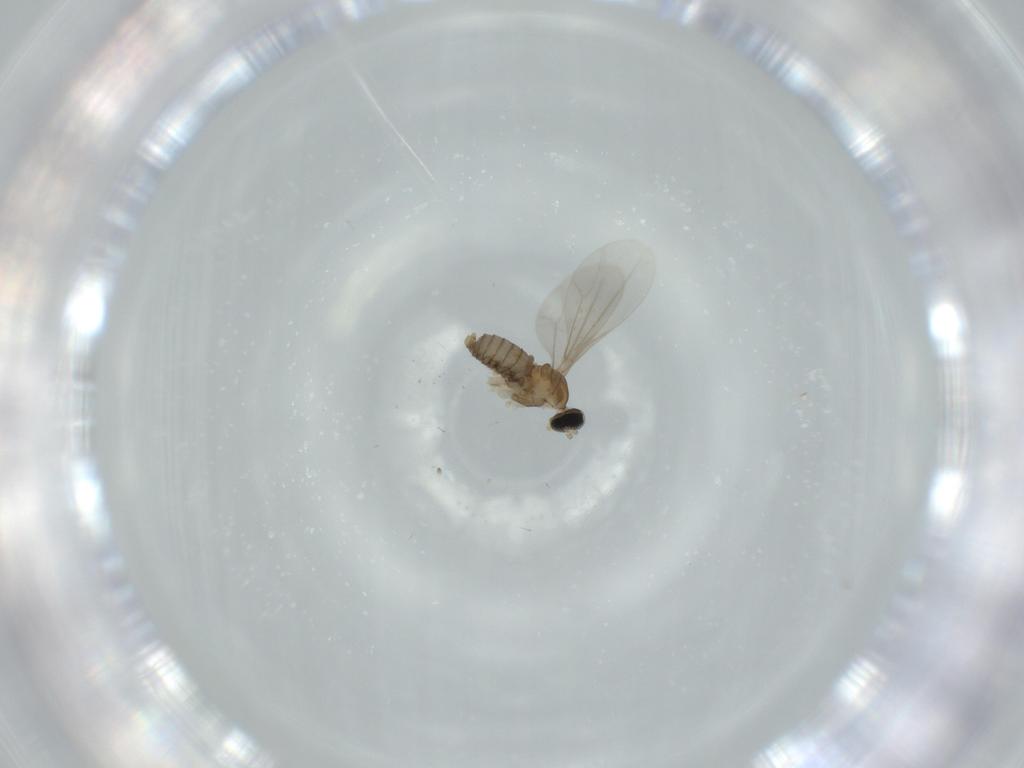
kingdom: Animalia
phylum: Arthropoda
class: Insecta
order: Diptera
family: Cecidomyiidae
